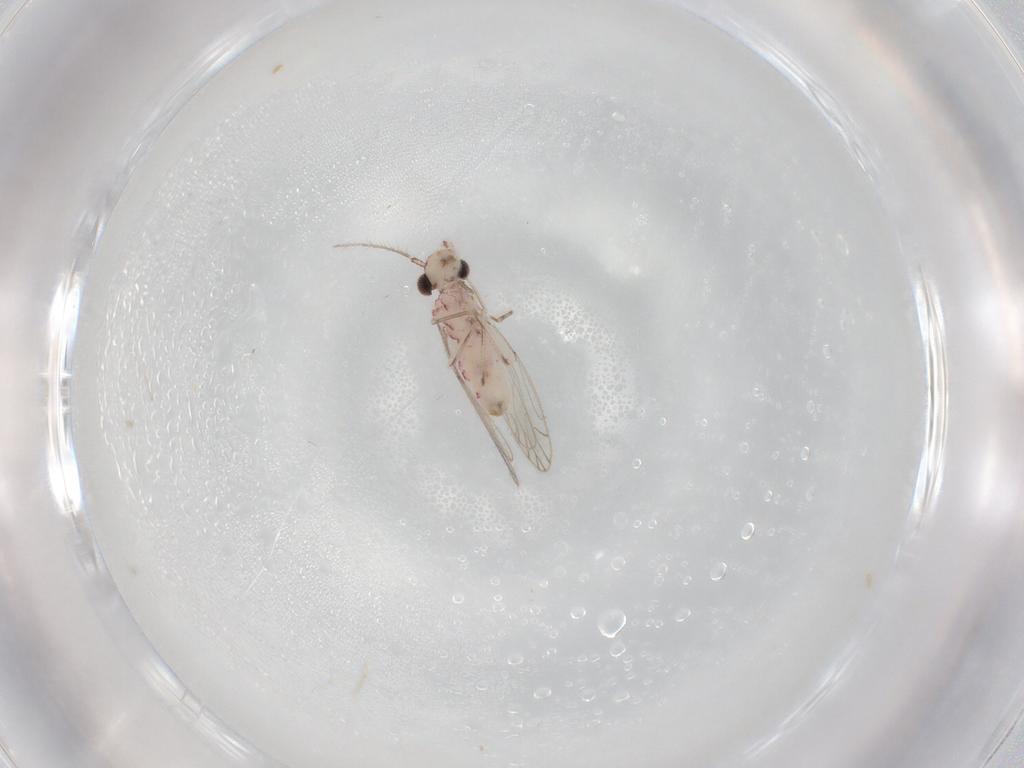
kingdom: Animalia
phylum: Arthropoda
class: Insecta
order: Psocodea
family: Caeciliusidae
